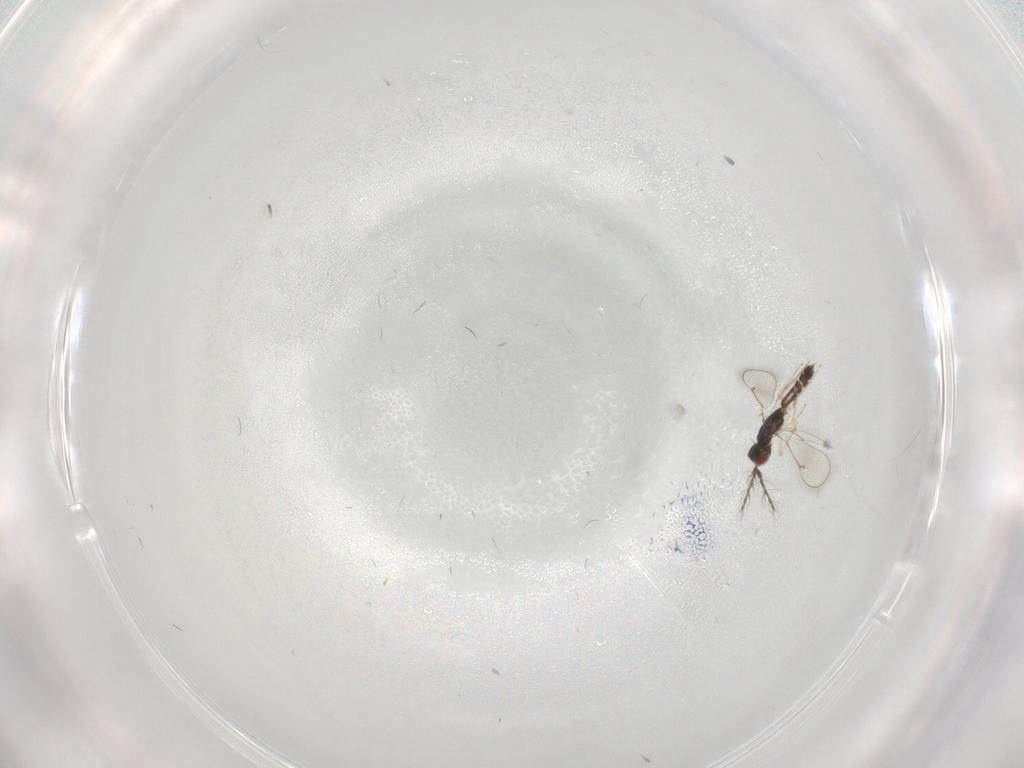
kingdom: Animalia
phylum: Arthropoda
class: Insecta
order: Hymenoptera
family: Eulophidae
